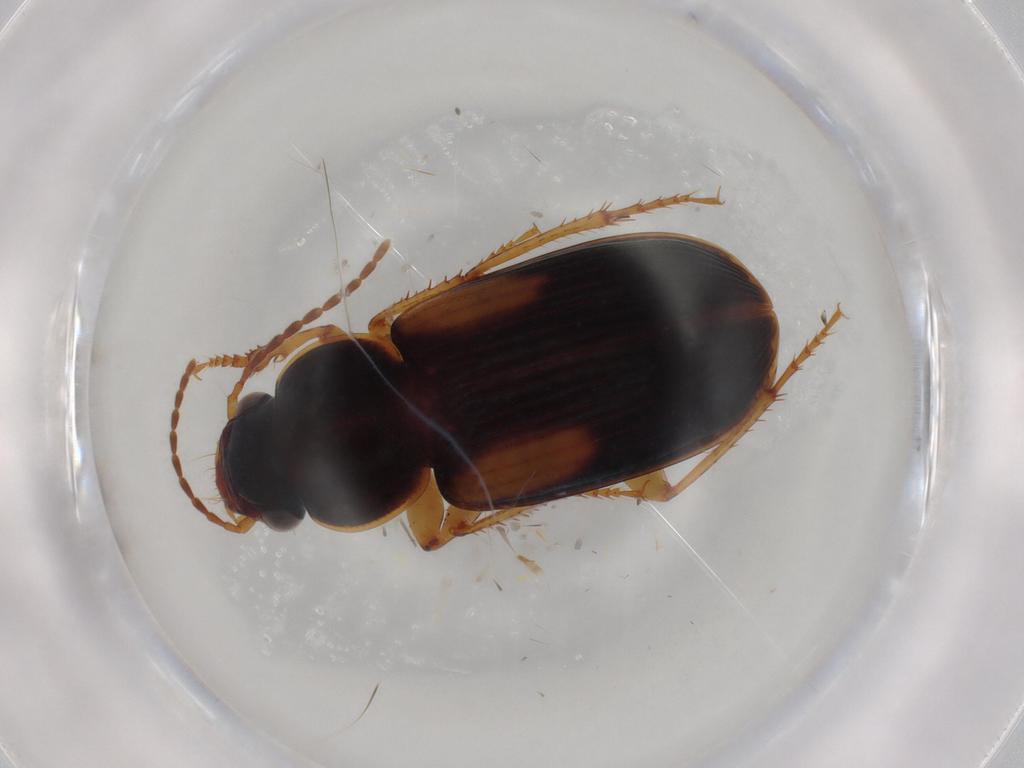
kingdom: Animalia
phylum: Arthropoda
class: Insecta
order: Coleoptera
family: Carabidae
